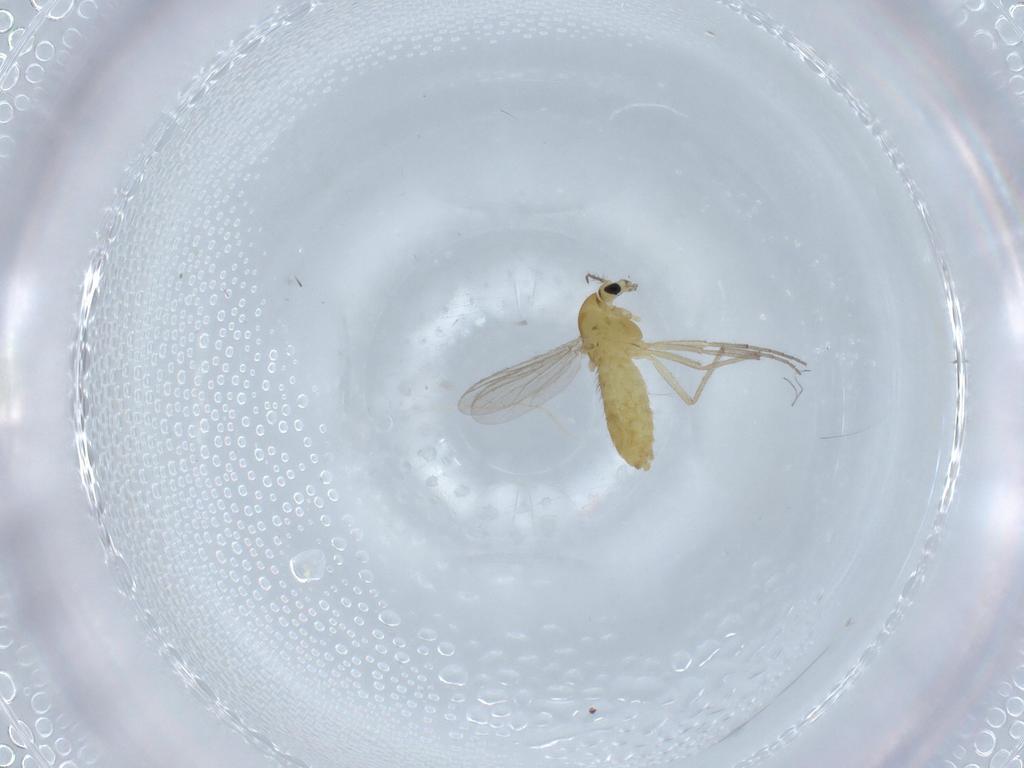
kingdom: Animalia
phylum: Arthropoda
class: Insecta
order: Diptera
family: Chironomidae
